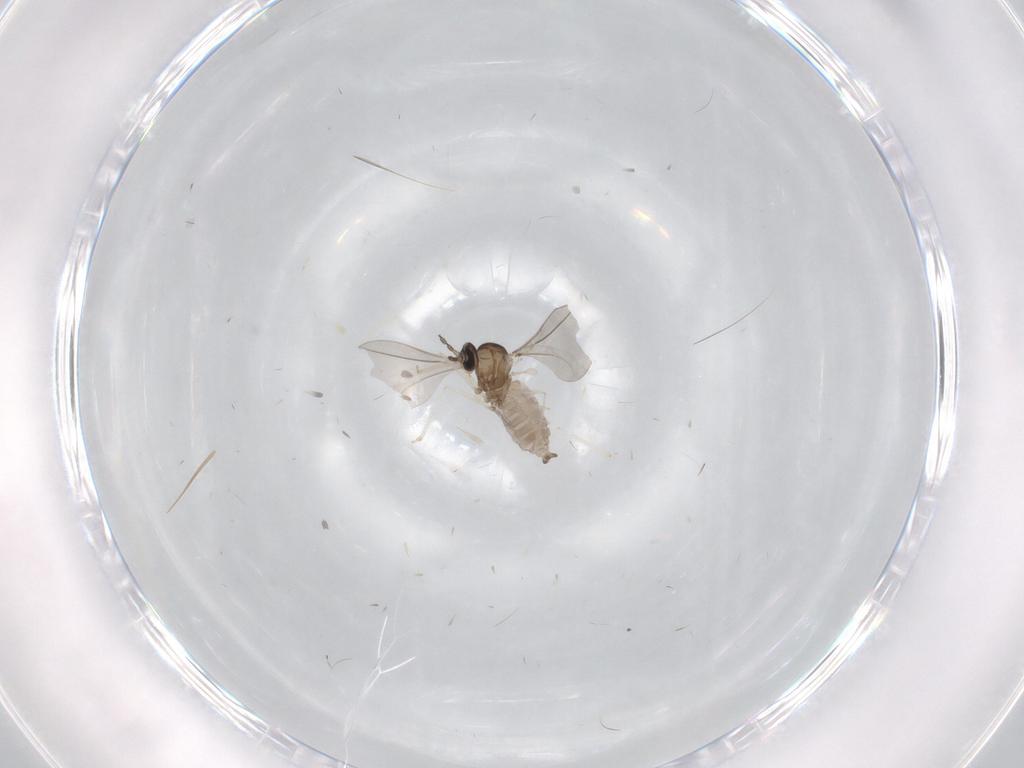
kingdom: Animalia
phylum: Arthropoda
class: Insecta
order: Diptera
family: Cecidomyiidae
